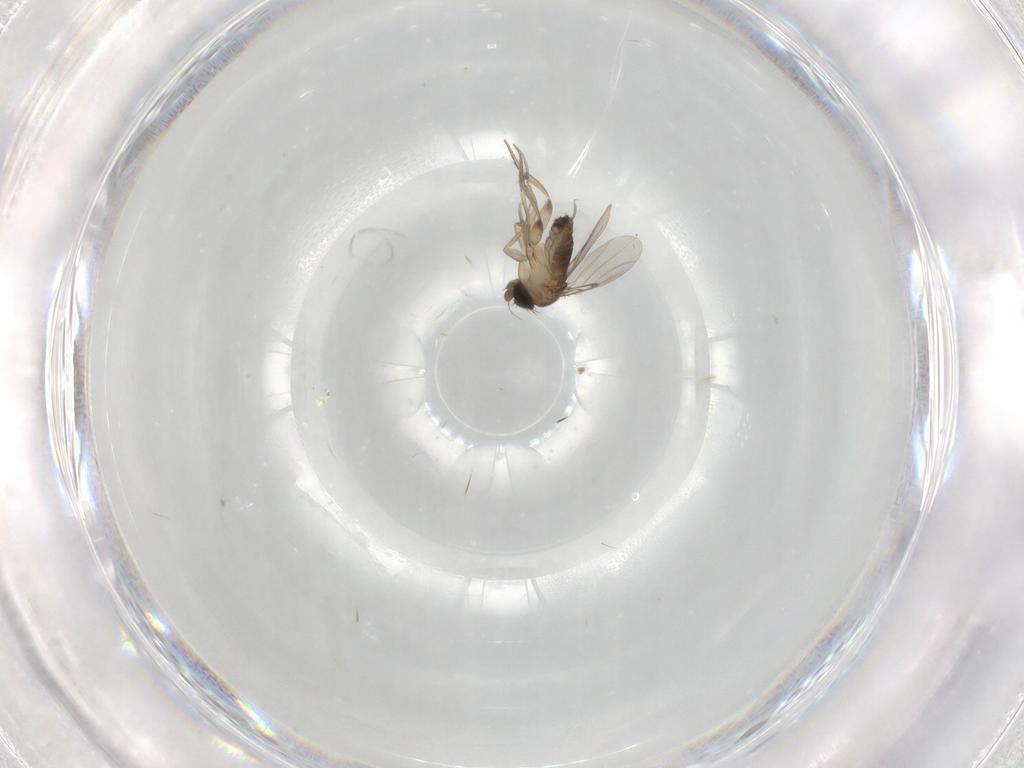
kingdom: Animalia
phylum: Arthropoda
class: Insecta
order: Diptera
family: Phoridae
